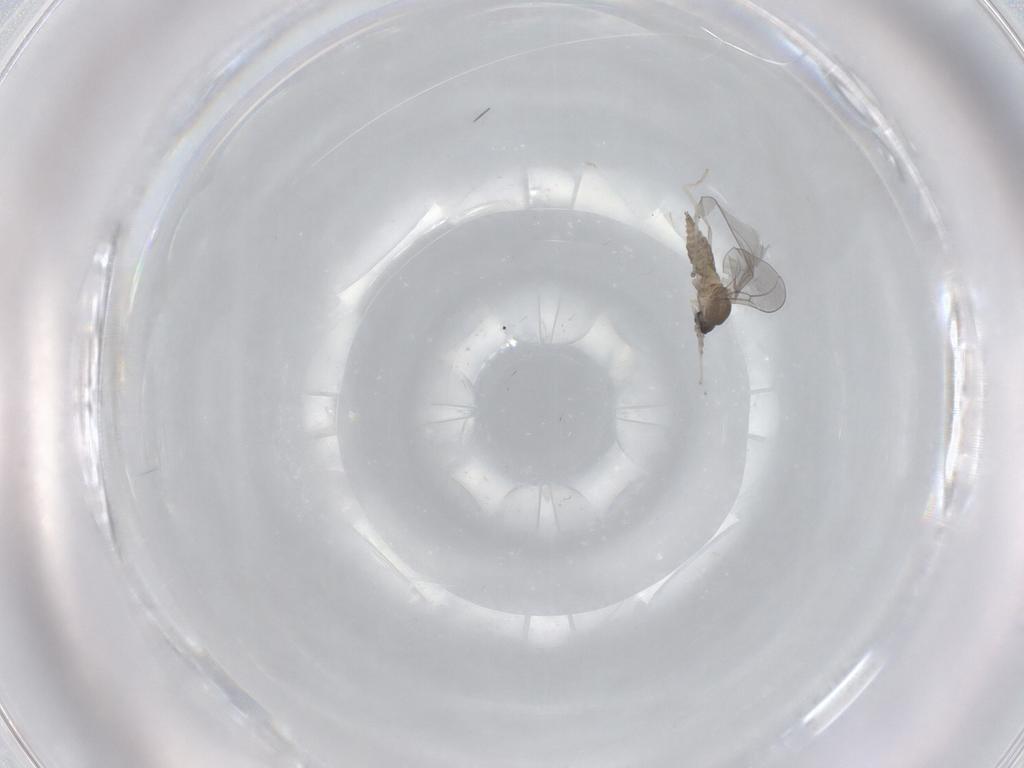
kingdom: Animalia
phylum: Arthropoda
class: Insecta
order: Diptera
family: Cecidomyiidae
